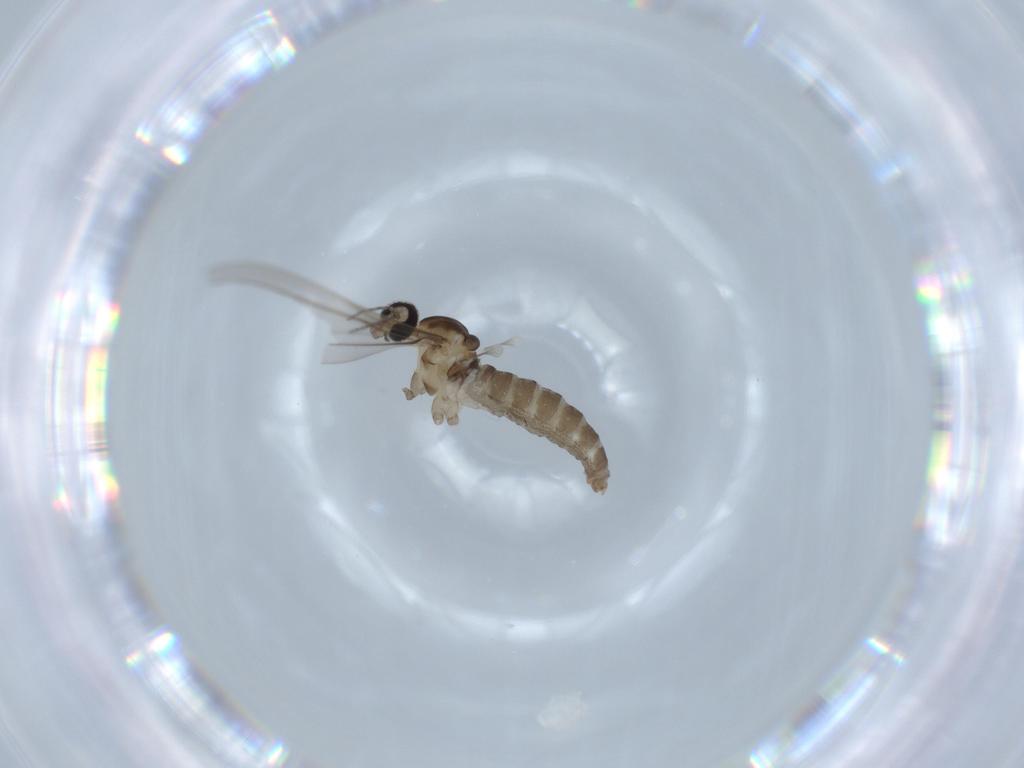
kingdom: Animalia
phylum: Arthropoda
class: Insecta
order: Diptera
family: Cecidomyiidae
